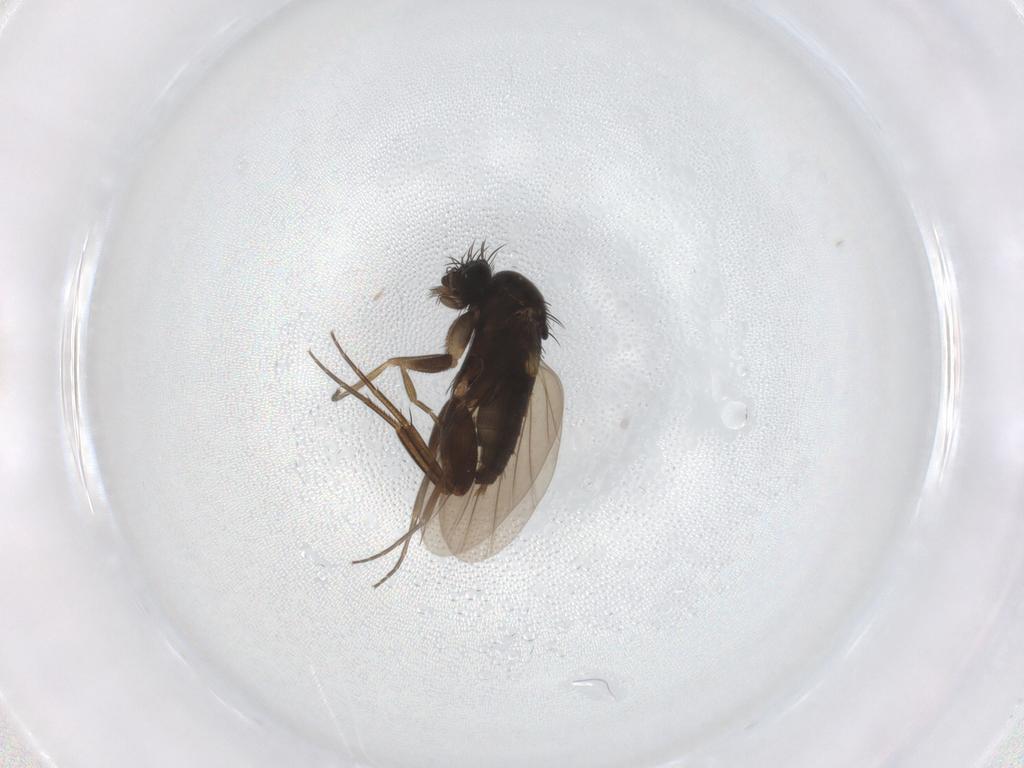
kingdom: Animalia
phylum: Arthropoda
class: Insecta
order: Diptera
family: Phoridae
